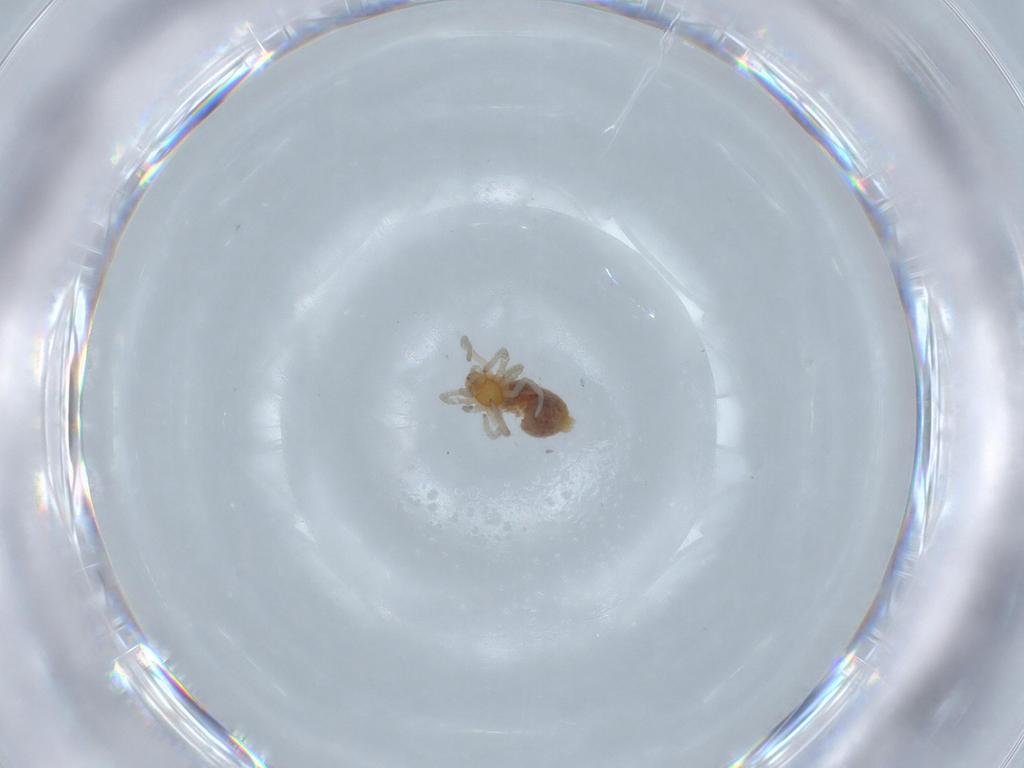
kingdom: Animalia
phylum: Arthropoda
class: Arachnida
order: Araneae
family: Dictynidae
